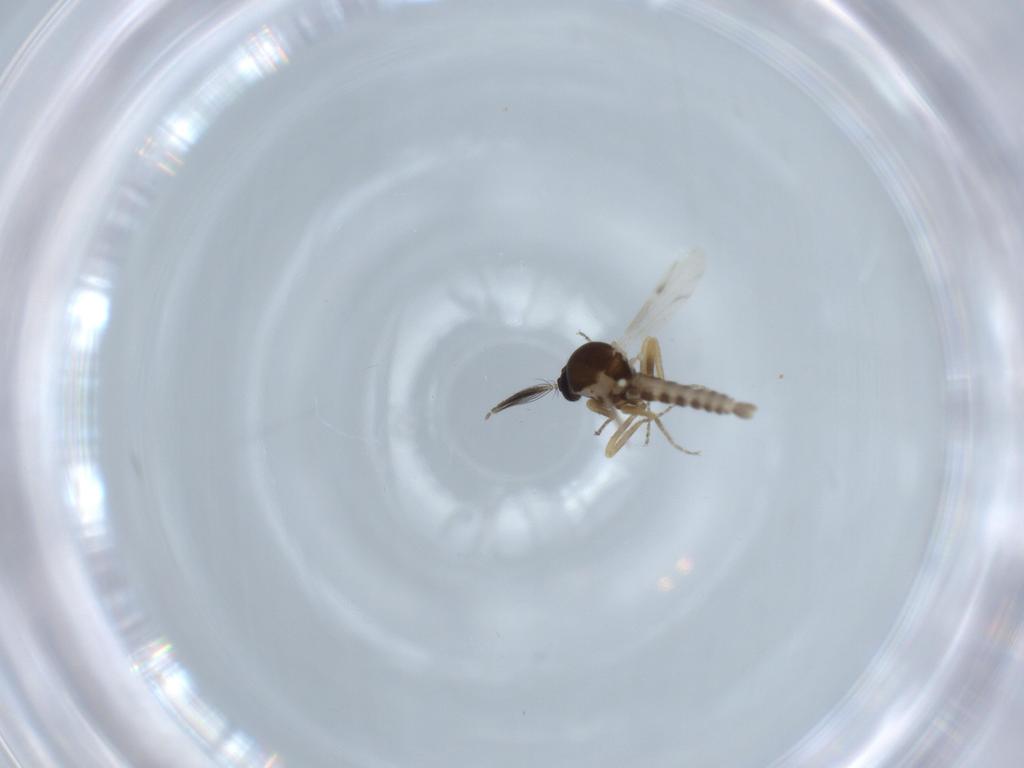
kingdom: Animalia
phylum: Arthropoda
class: Insecta
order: Diptera
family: Ceratopogonidae
